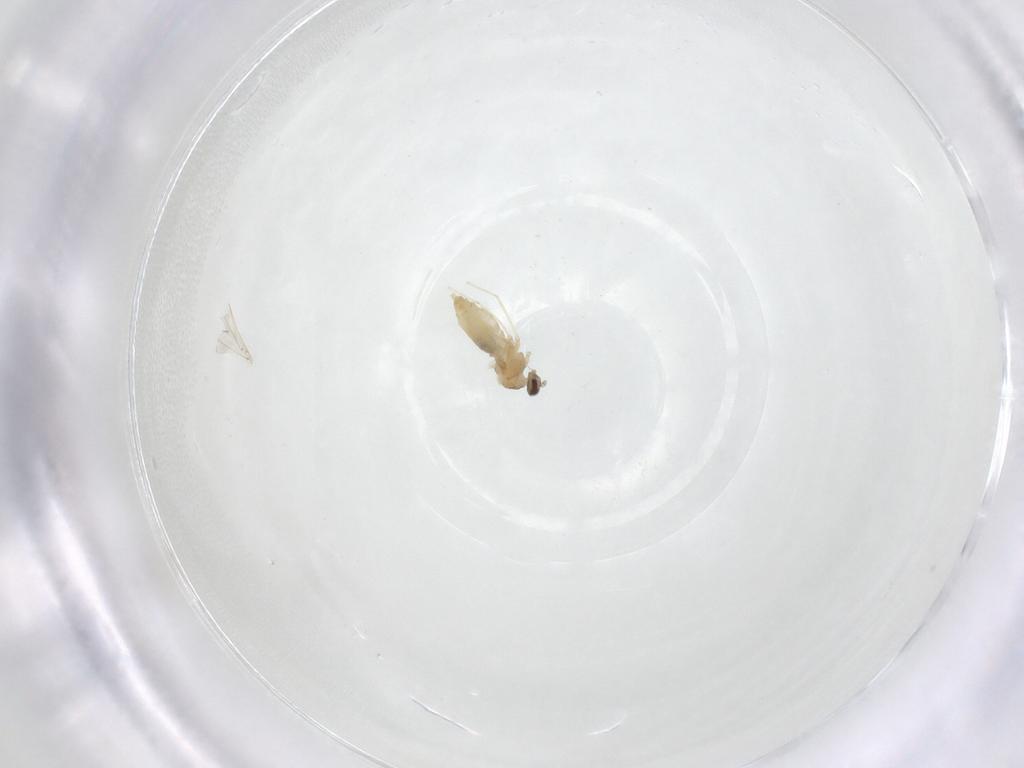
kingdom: Animalia
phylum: Arthropoda
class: Insecta
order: Diptera
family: Cecidomyiidae
